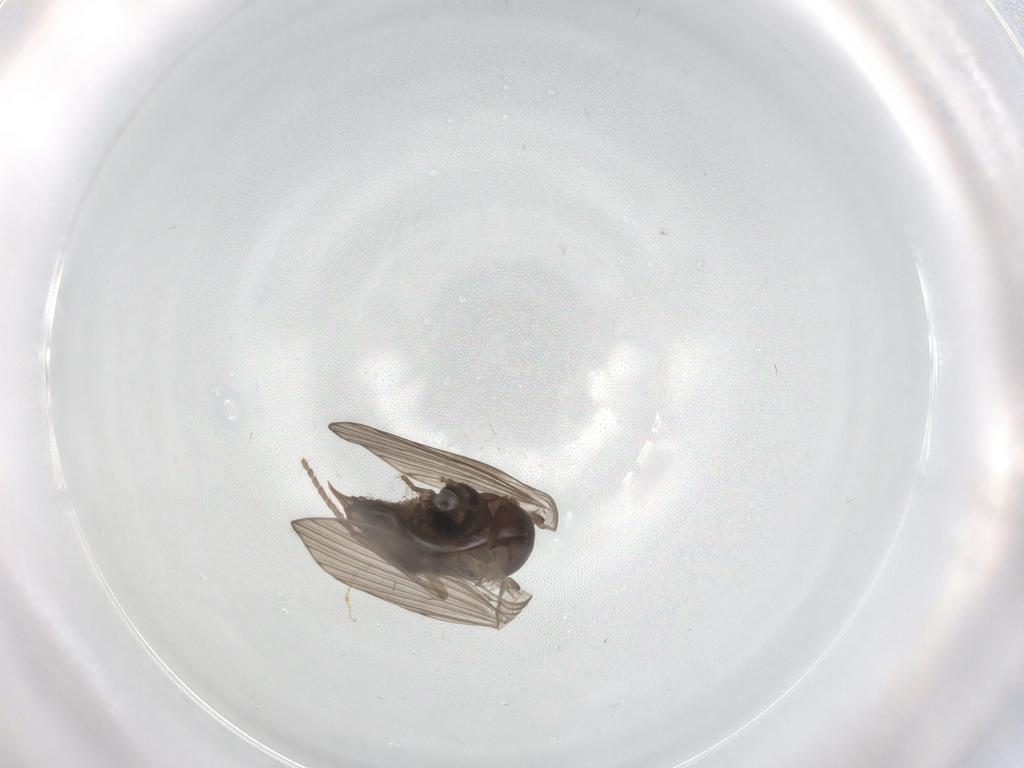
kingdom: Animalia
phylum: Arthropoda
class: Insecta
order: Diptera
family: Psychodidae
